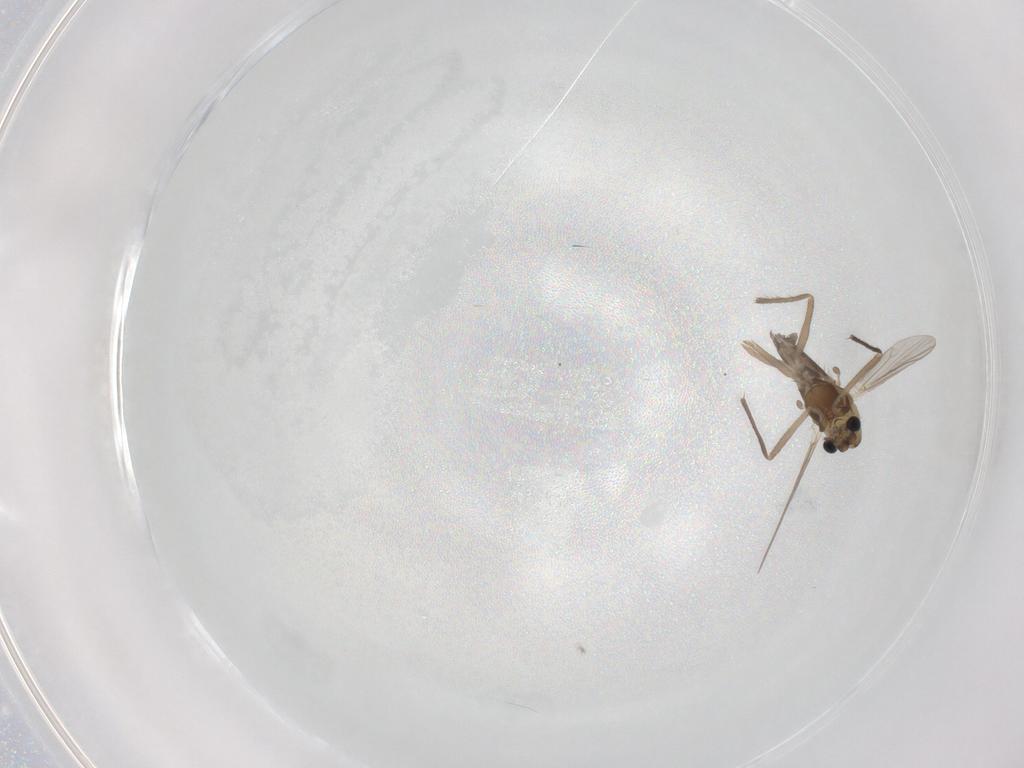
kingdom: Animalia
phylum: Arthropoda
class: Insecta
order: Diptera
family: Chironomidae
